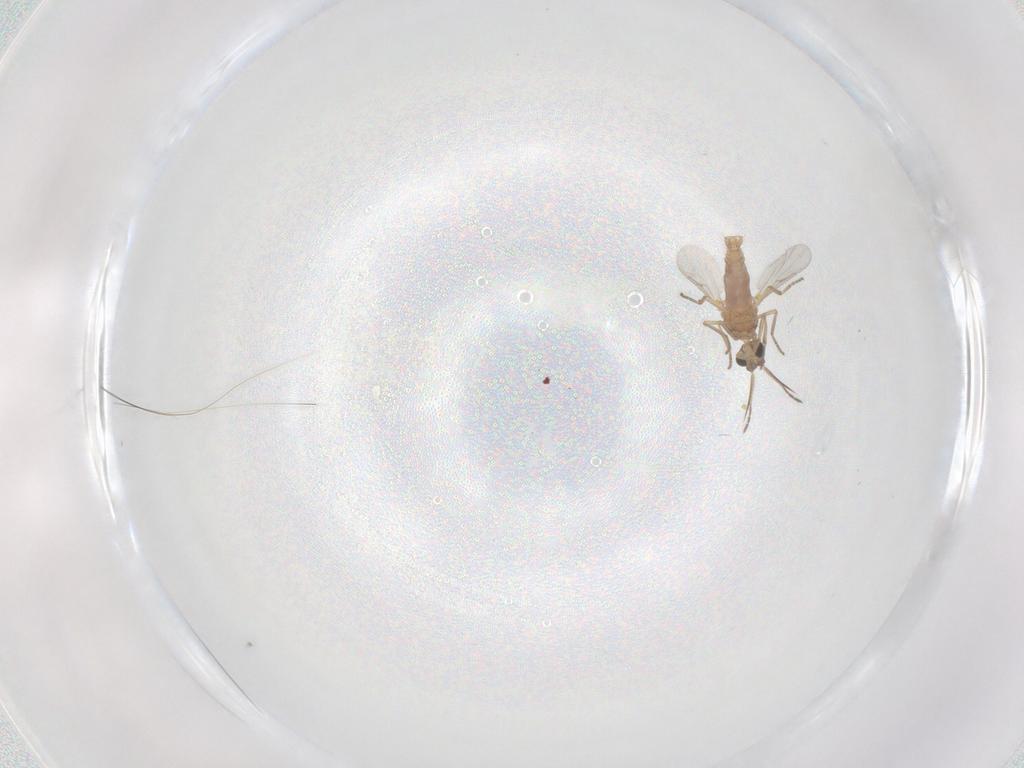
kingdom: Animalia
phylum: Arthropoda
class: Insecta
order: Diptera
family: Ceratopogonidae
